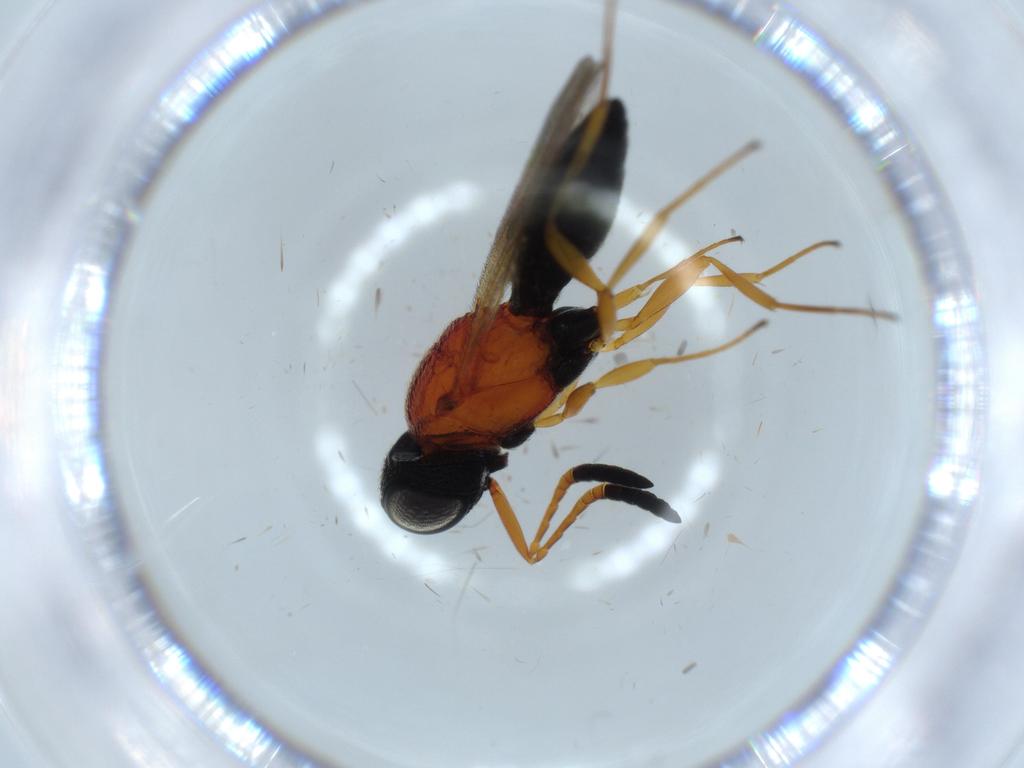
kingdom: Animalia
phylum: Arthropoda
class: Insecta
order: Hymenoptera
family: Scelionidae
